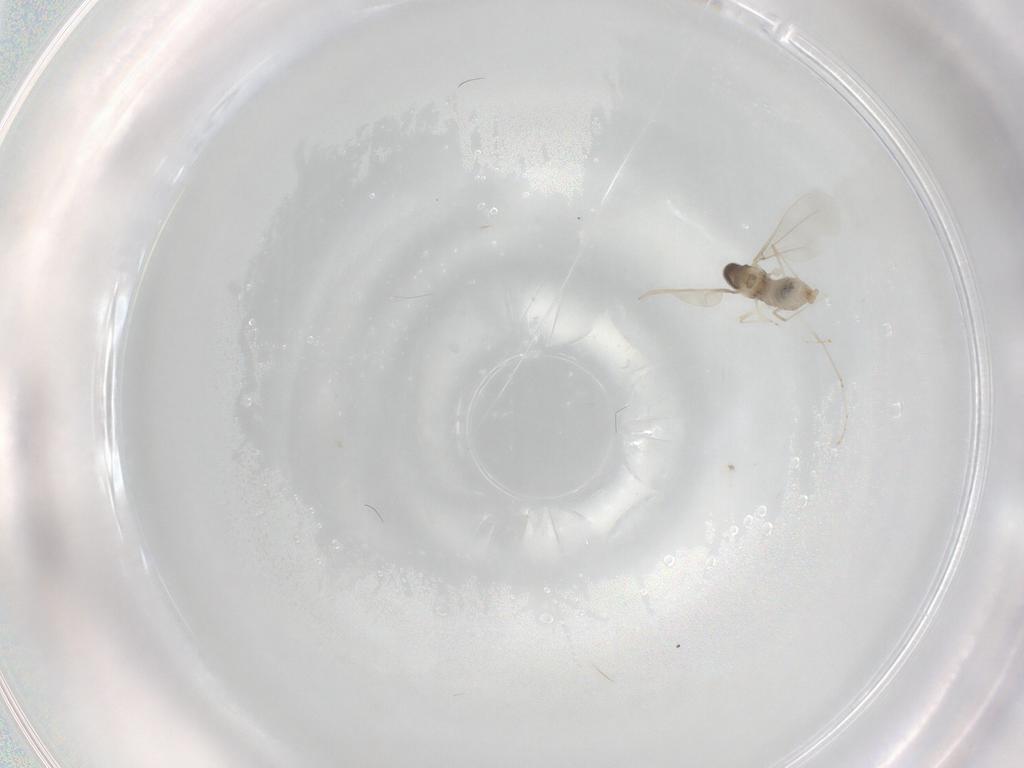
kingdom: Animalia
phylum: Arthropoda
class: Insecta
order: Diptera
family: Cecidomyiidae
